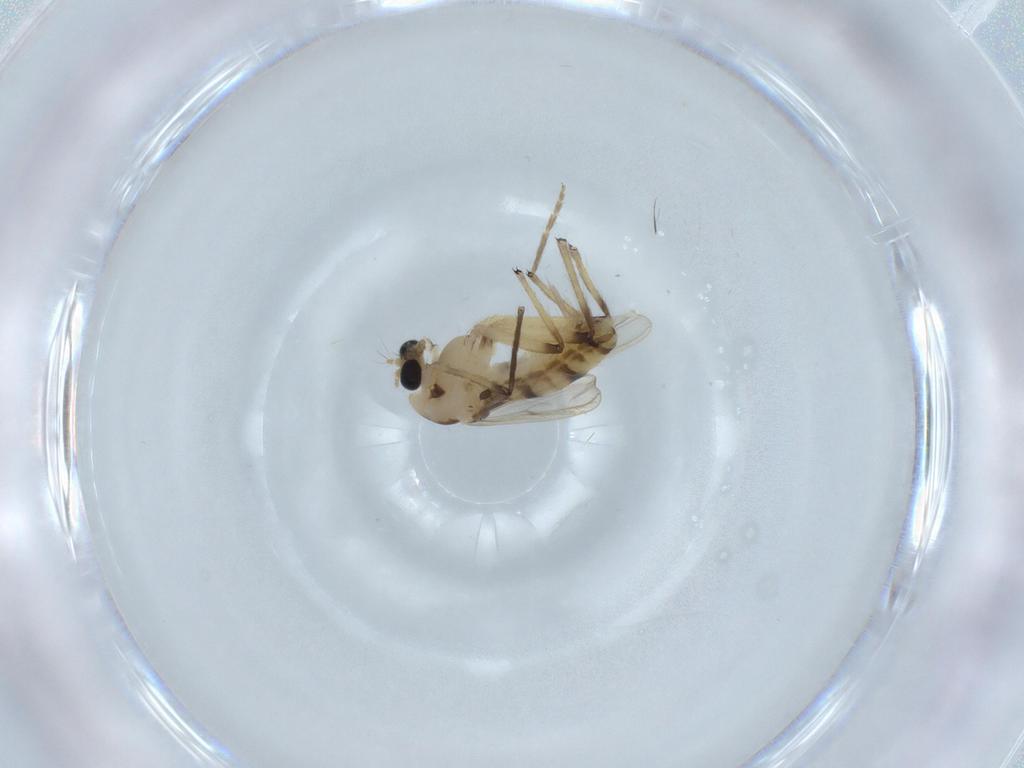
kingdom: Animalia
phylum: Arthropoda
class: Insecta
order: Diptera
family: Chironomidae
